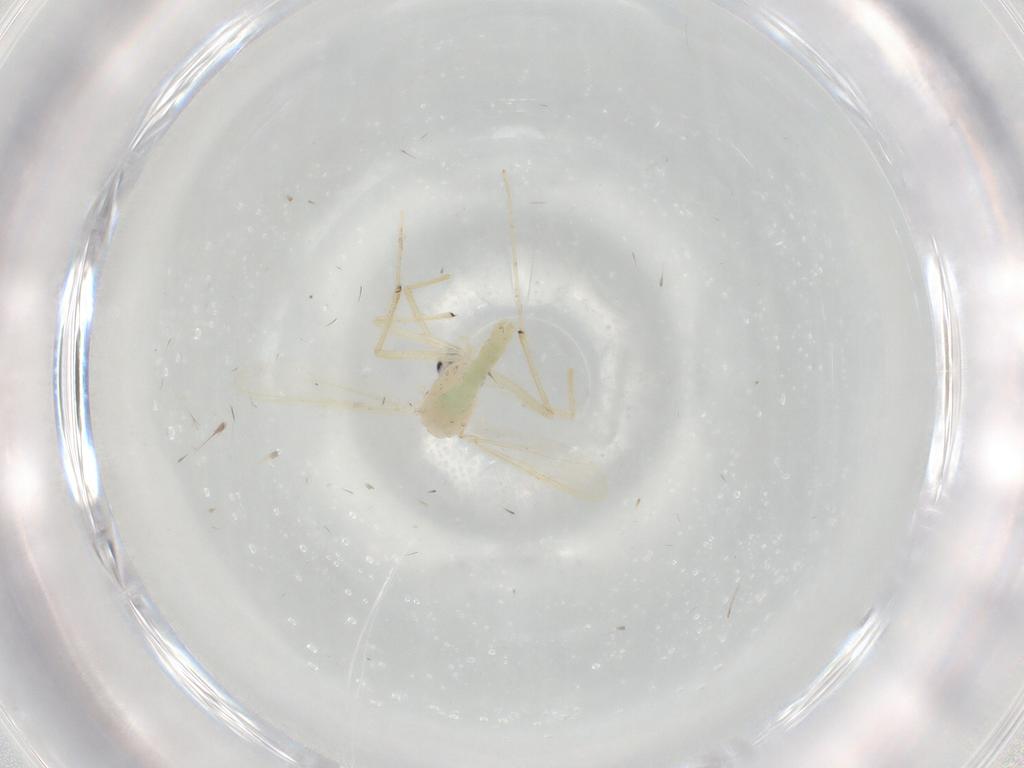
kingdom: Animalia
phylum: Arthropoda
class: Insecta
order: Diptera
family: Chironomidae
